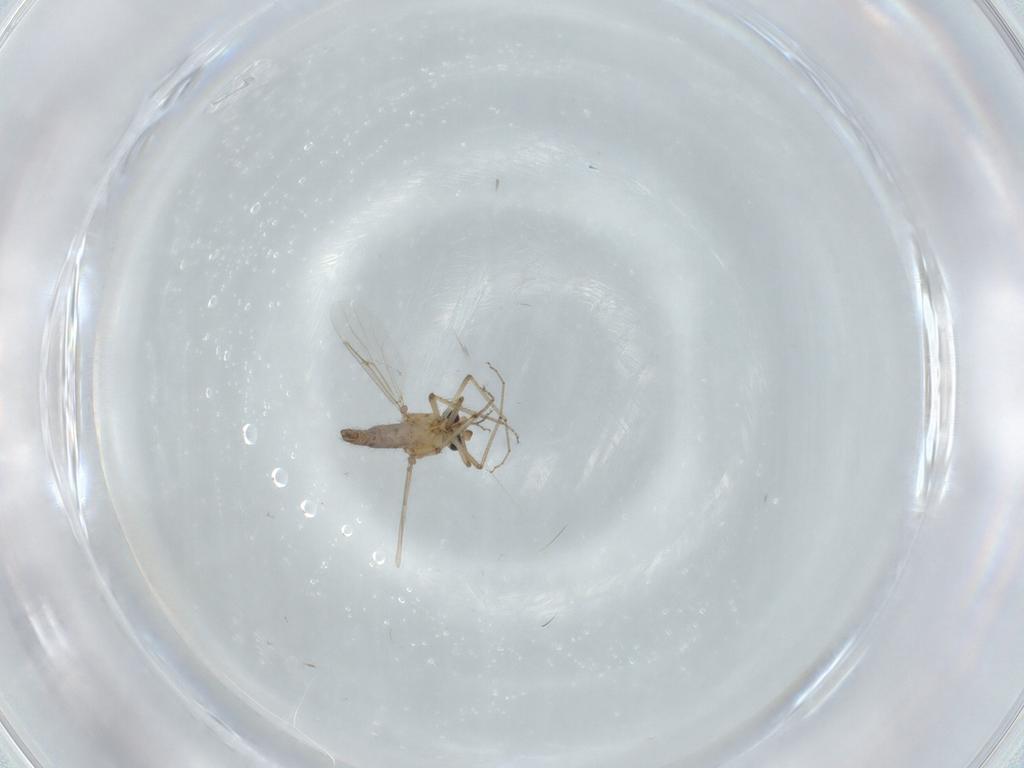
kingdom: Animalia
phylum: Arthropoda
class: Insecta
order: Diptera
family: Ceratopogonidae
